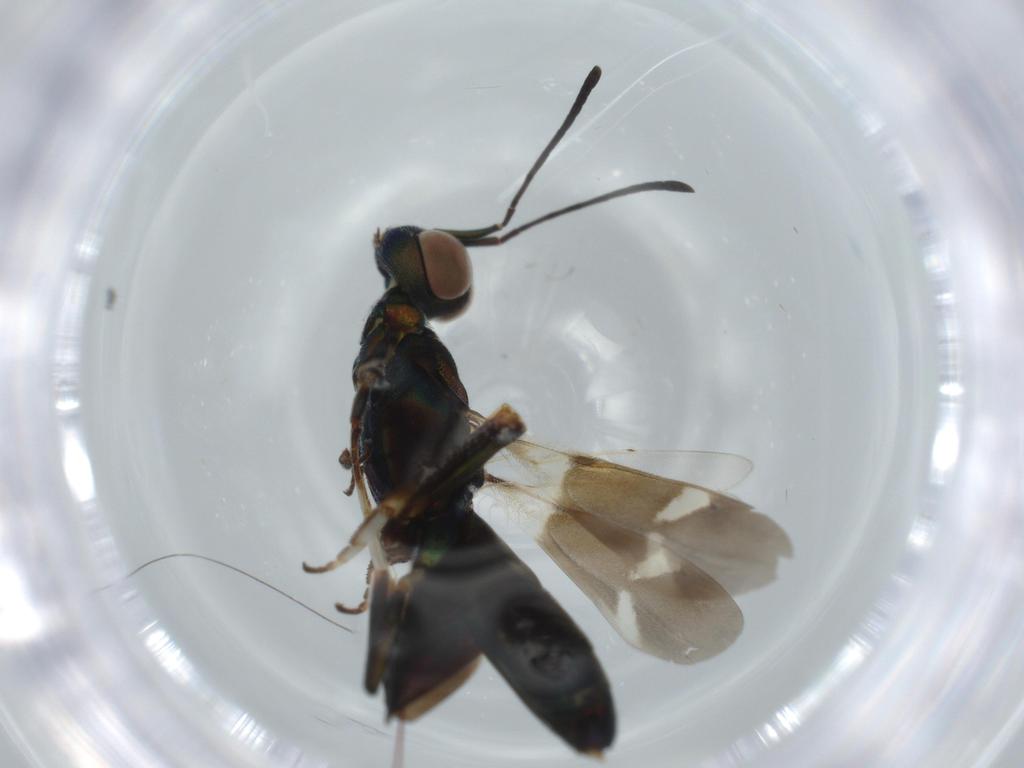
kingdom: Animalia
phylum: Arthropoda
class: Insecta
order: Hymenoptera
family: Eupelmidae
